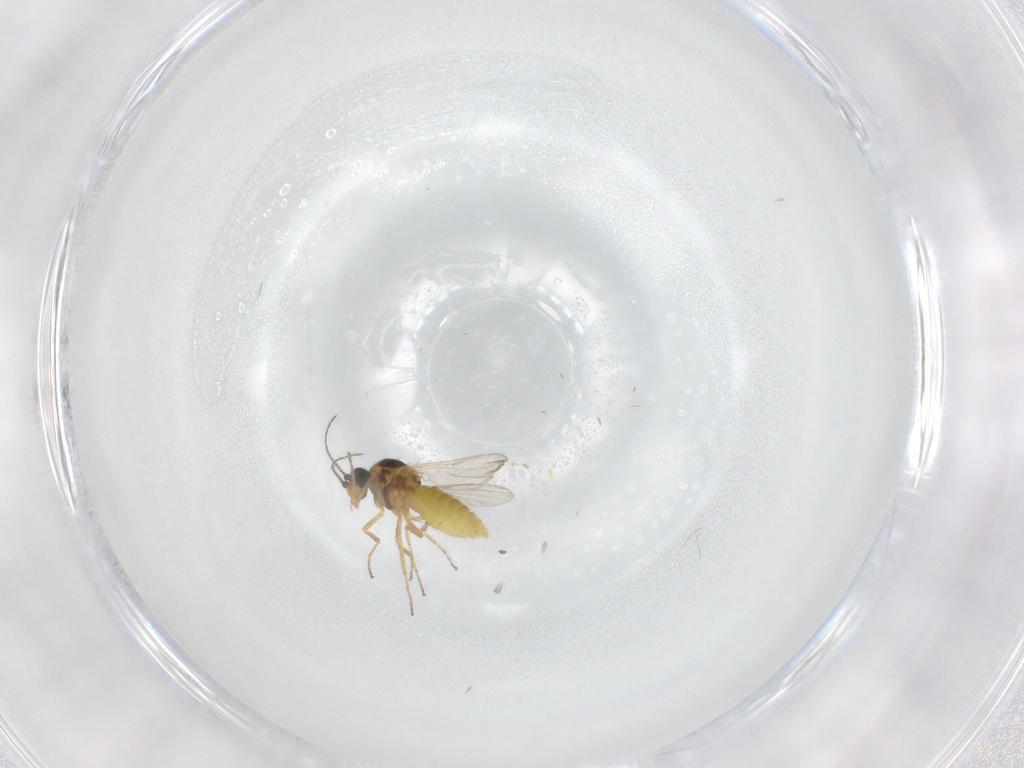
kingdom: Animalia
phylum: Arthropoda
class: Insecta
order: Diptera
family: Ceratopogonidae
